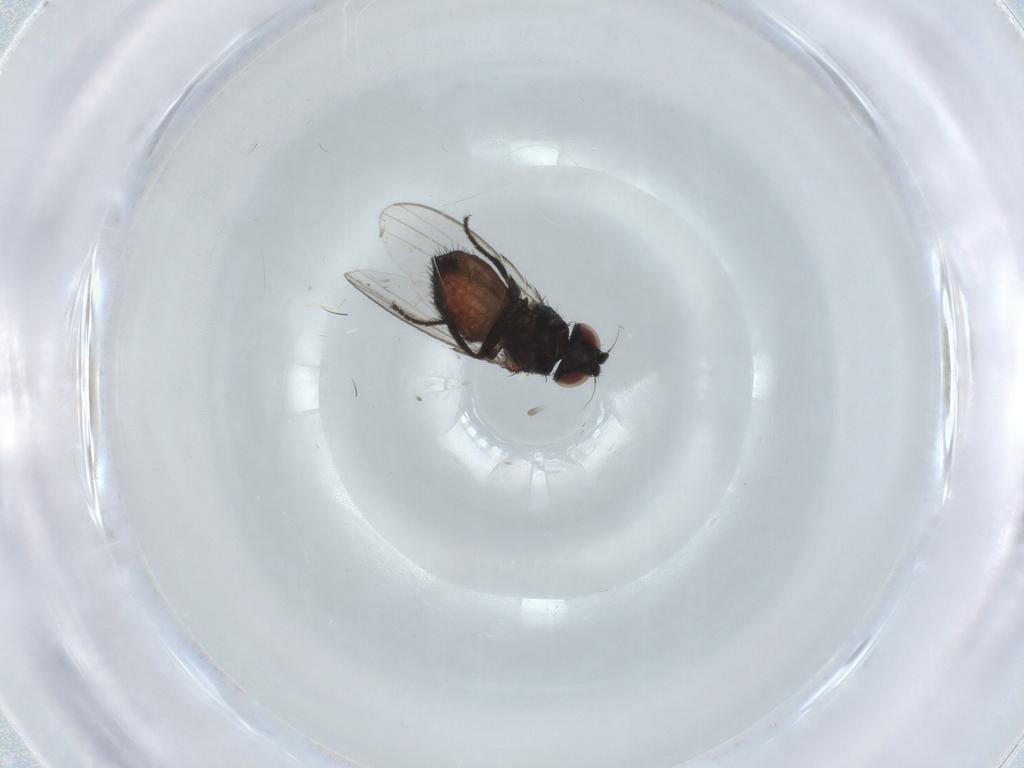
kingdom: Animalia
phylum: Arthropoda
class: Insecta
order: Diptera
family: Milichiidae
